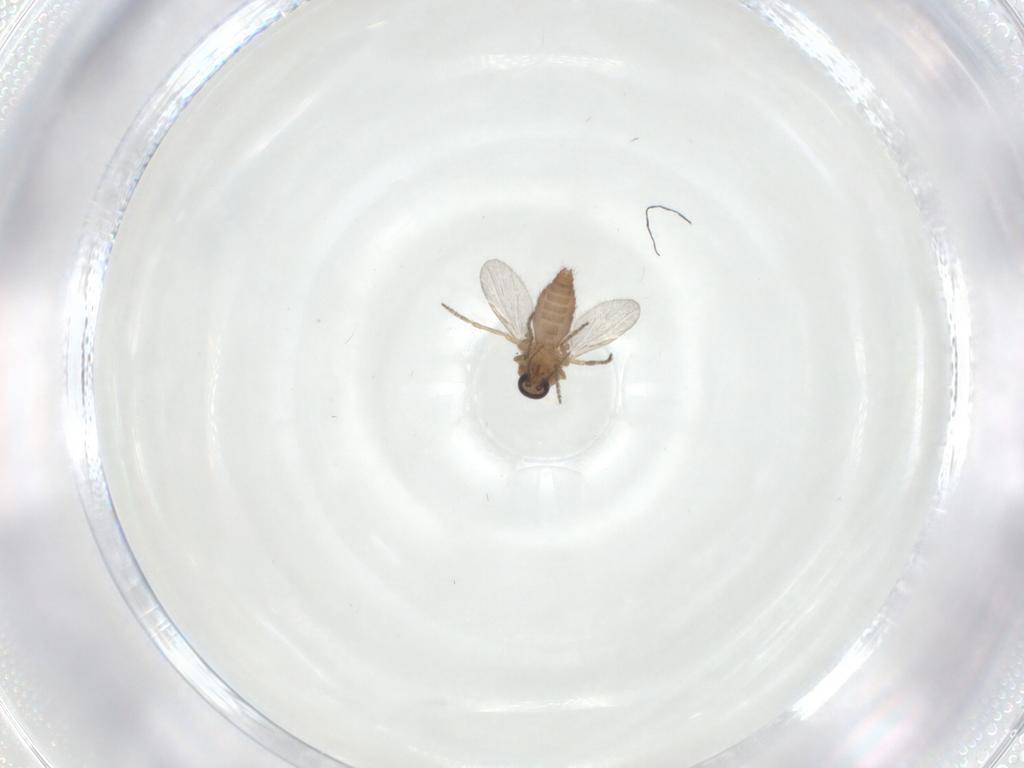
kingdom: Animalia
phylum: Arthropoda
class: Insecta
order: Diptera
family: Ceratopogonidae
